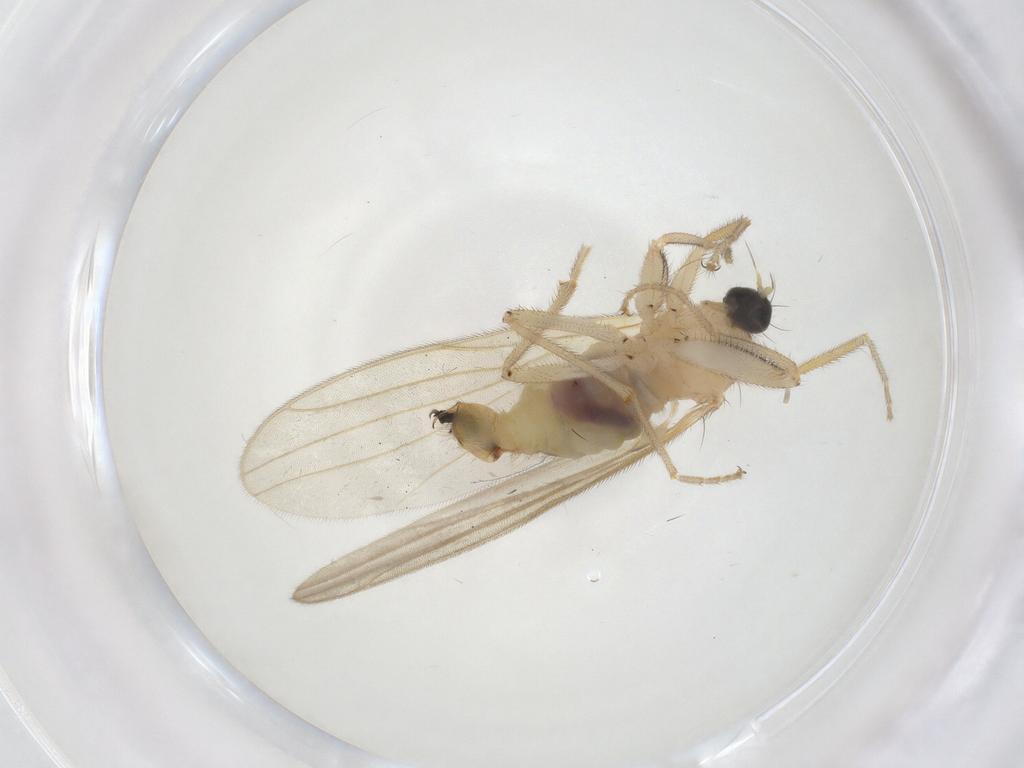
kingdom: Animalia
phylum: Arthropoda
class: Insecta
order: Diptera
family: Hybotidae
